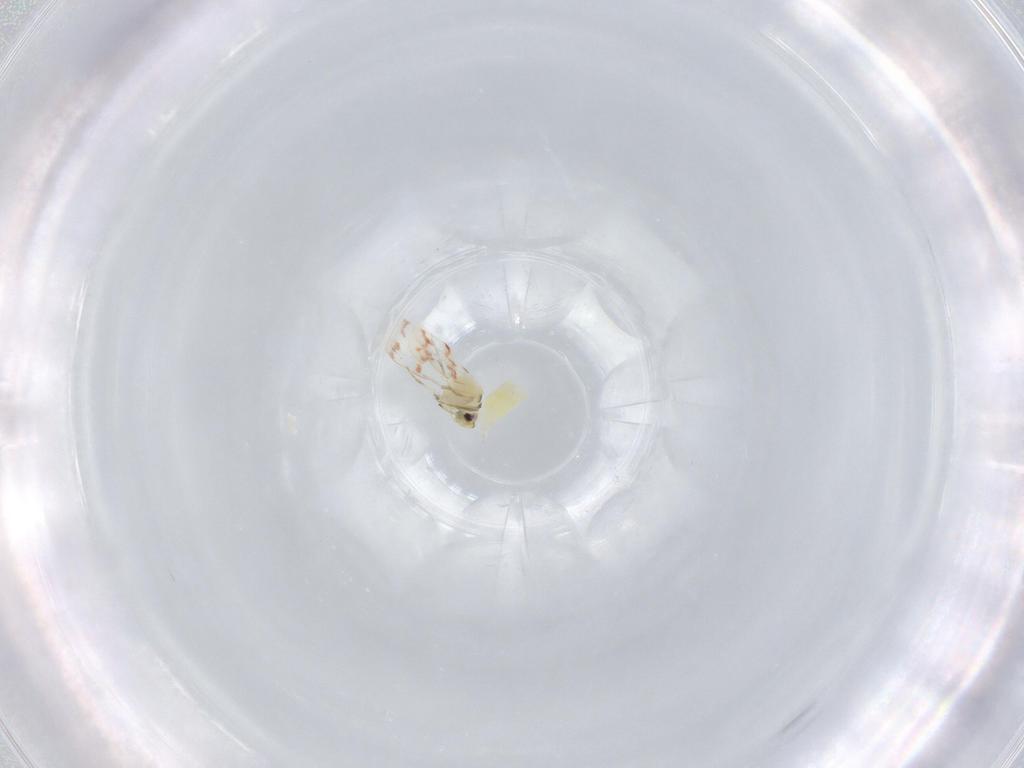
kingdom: Animalia
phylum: Arthropoda
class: Insecta
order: Hemiptera
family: Aleyrodidae
